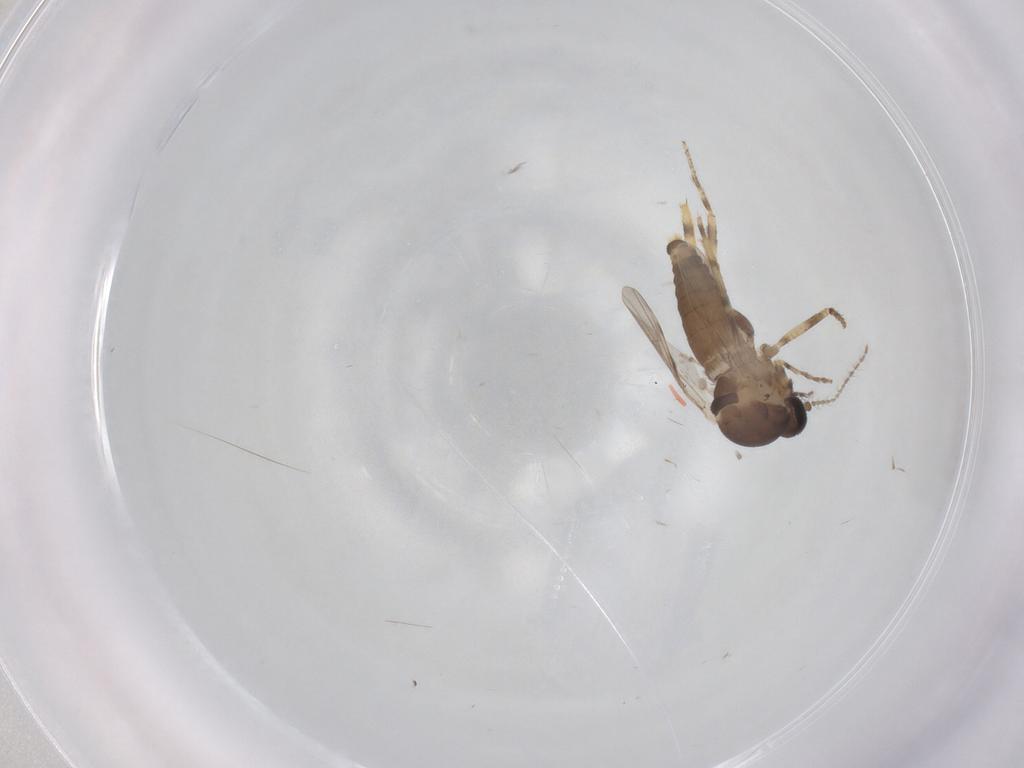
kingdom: Animalia
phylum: Arthropoda
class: Insecta
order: Diptera
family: Ceratopogonidae
